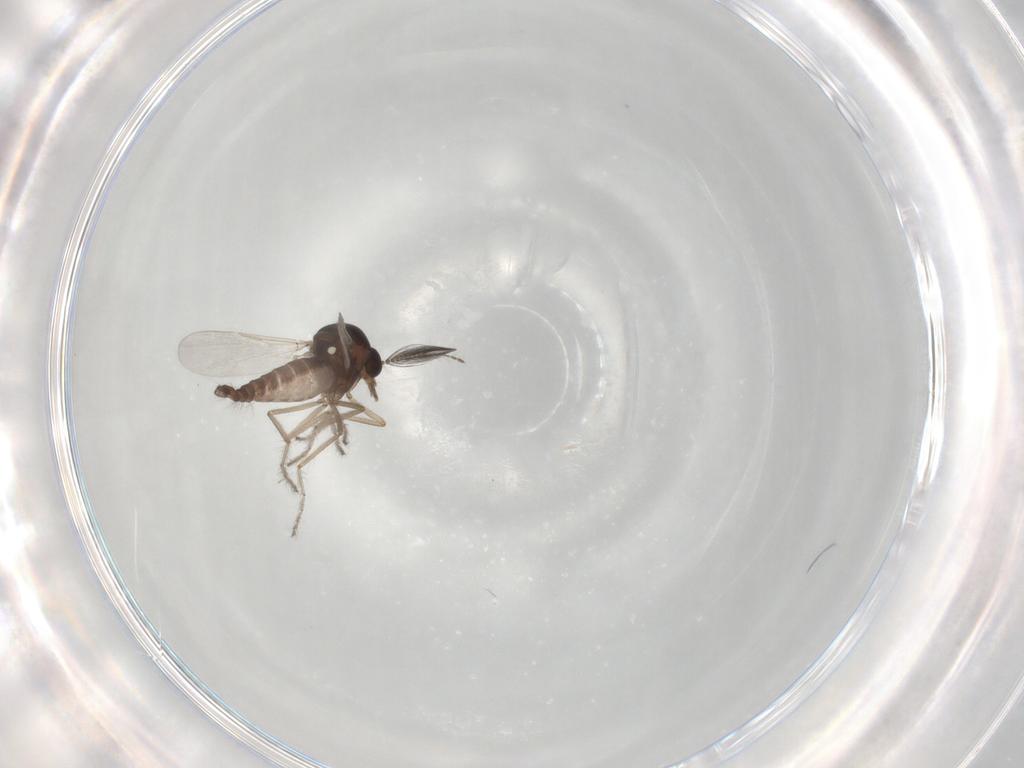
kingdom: Animalia
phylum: Arthropoda
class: Insecta
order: Diptera
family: Ceratopogonidae
